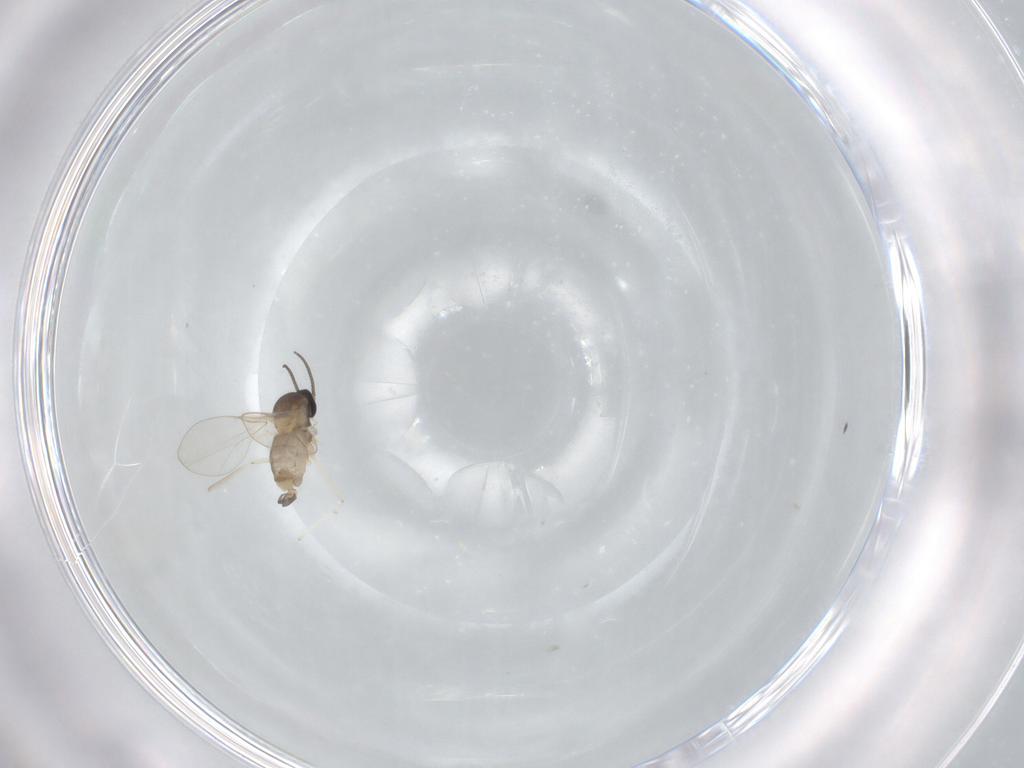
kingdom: Animalia
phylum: Arthropoda
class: Insecta
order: Diptera
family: Cecidomyiidae
